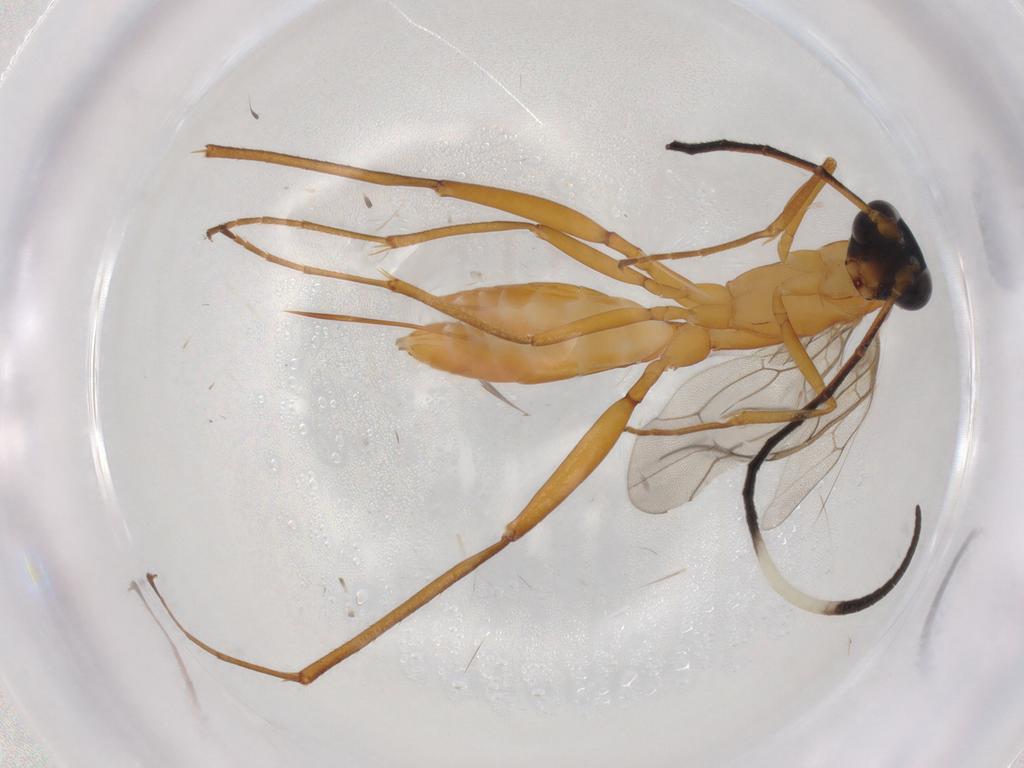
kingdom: Animalia
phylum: Arthropoda
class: Insecta
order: Hymenoptera
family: Ichneumonidae
